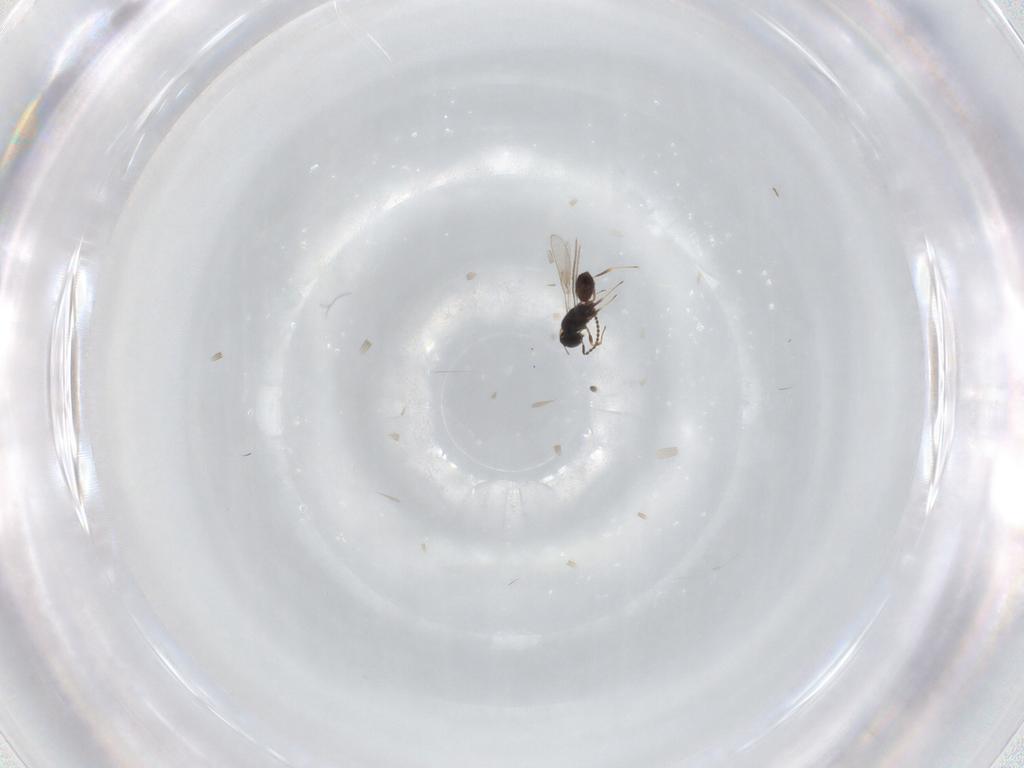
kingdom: Animalia
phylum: Arthropoda
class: Insecta
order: Hymenoptera
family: Scelionidae
